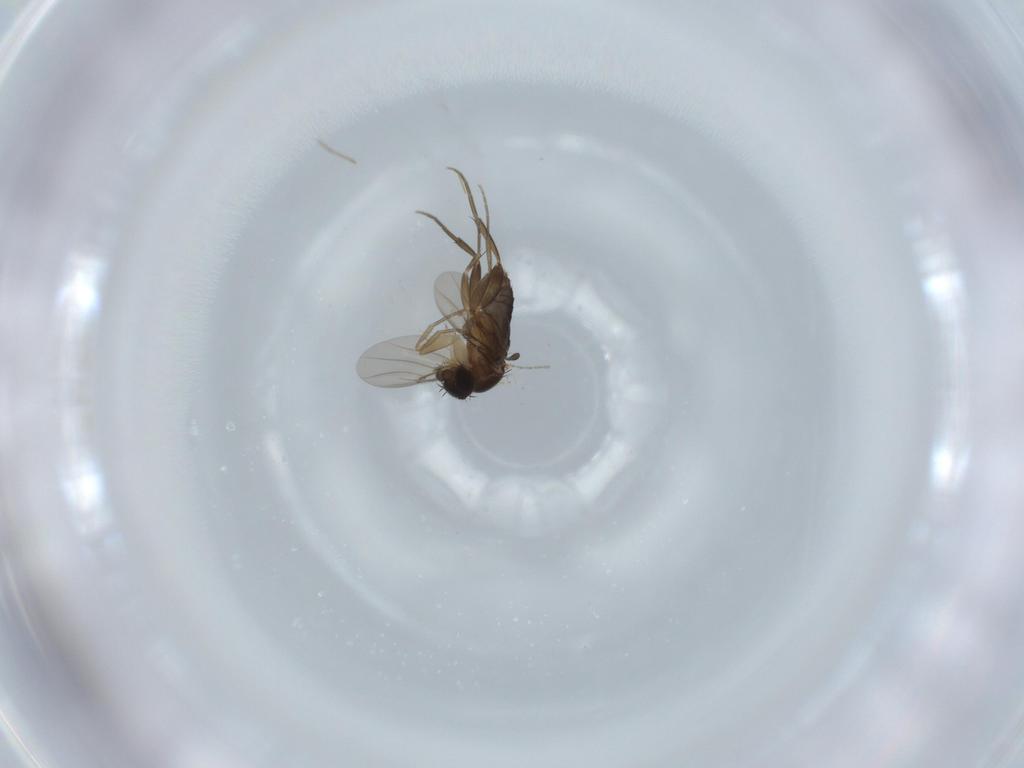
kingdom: Animalia
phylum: Arthropoda
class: Insecta
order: Diptera
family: Phoridae
